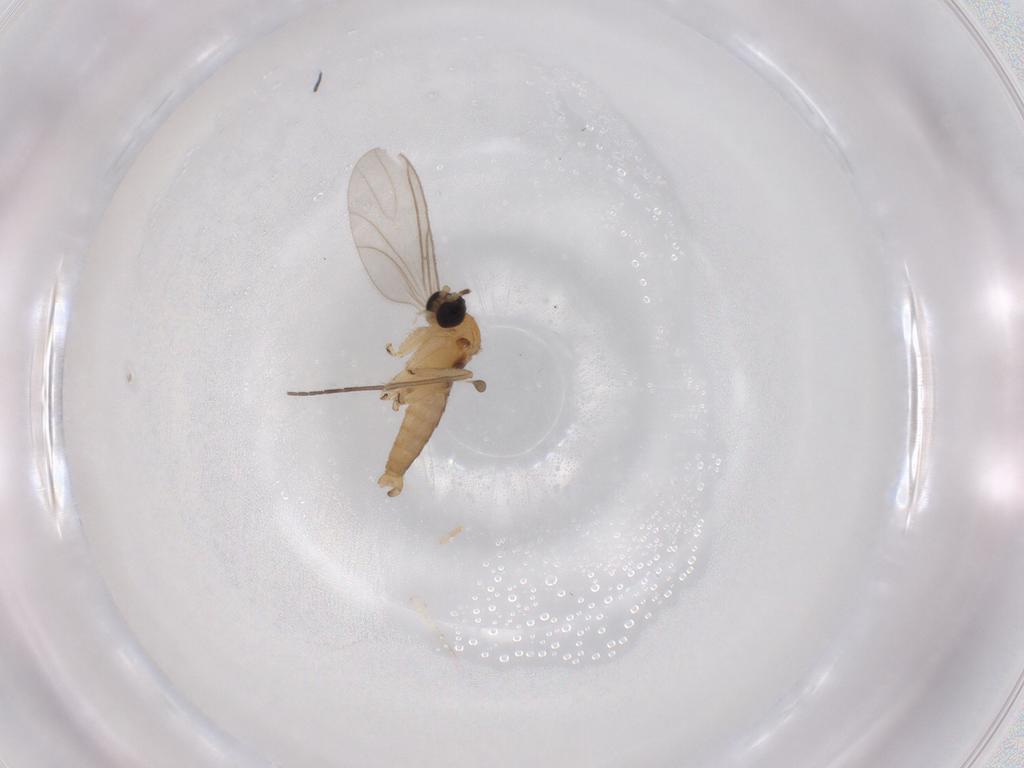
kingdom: Animalia
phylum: Arthropoda
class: Insecta
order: Diptera
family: Sciaridae
